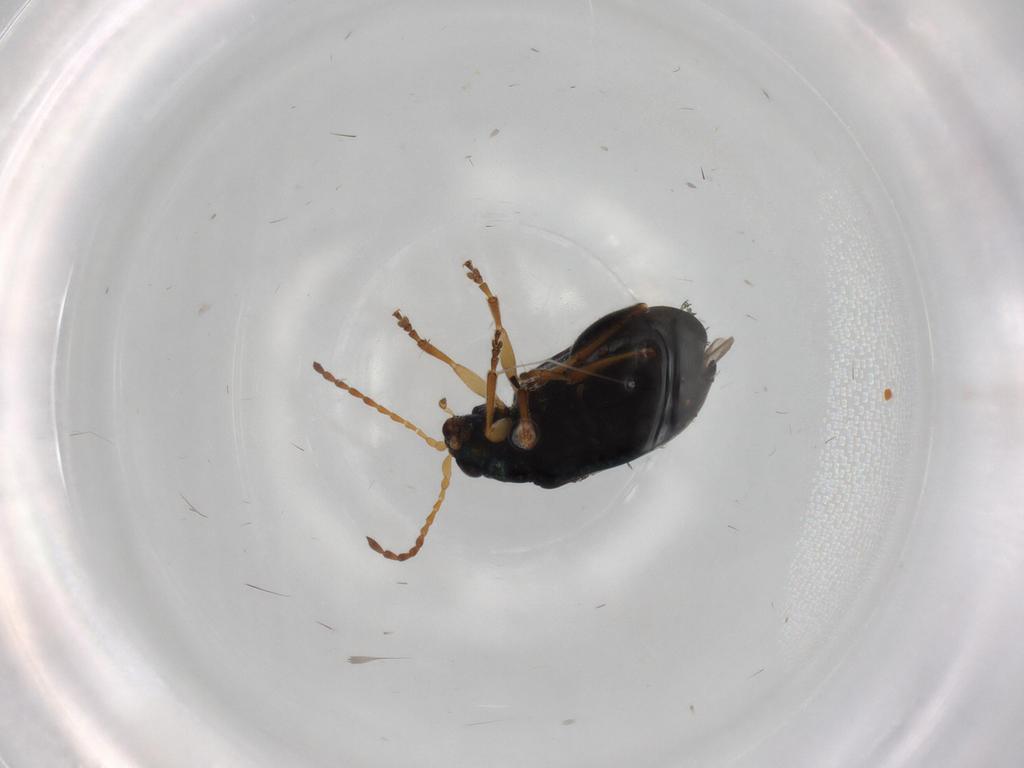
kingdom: Animalia
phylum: Arthropoda
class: Insecta
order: Coleoptera
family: Chrysomelidae
